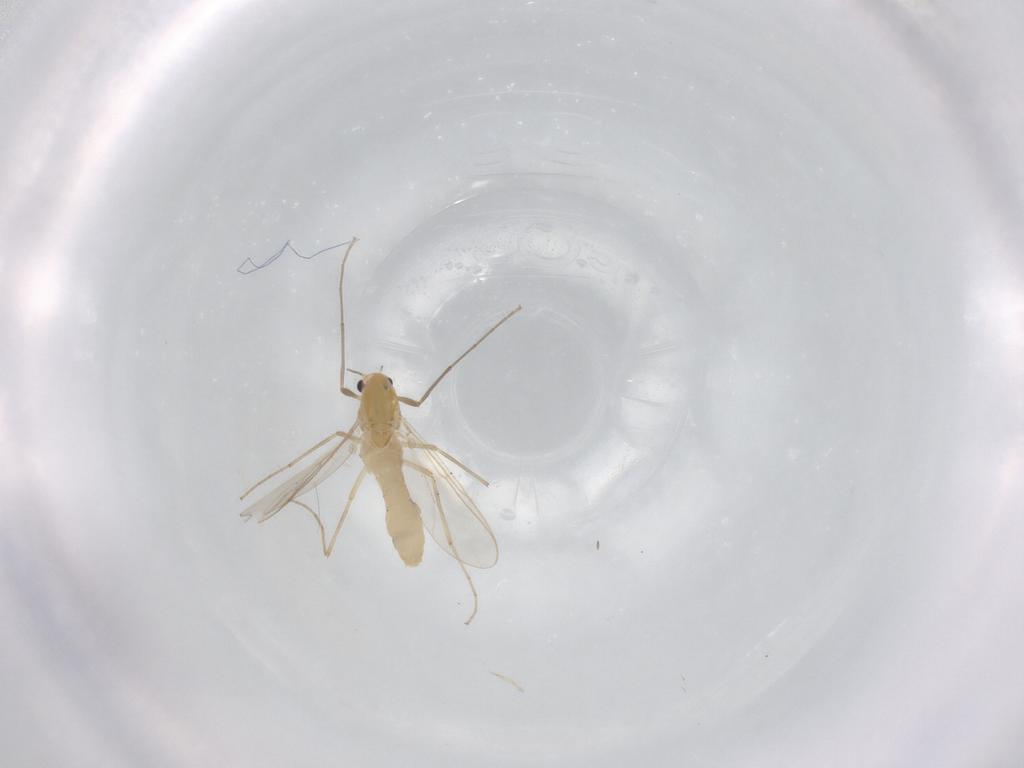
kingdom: Animalia
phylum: Arthropoda
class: Insecta
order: Diptera
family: Chironomidae
